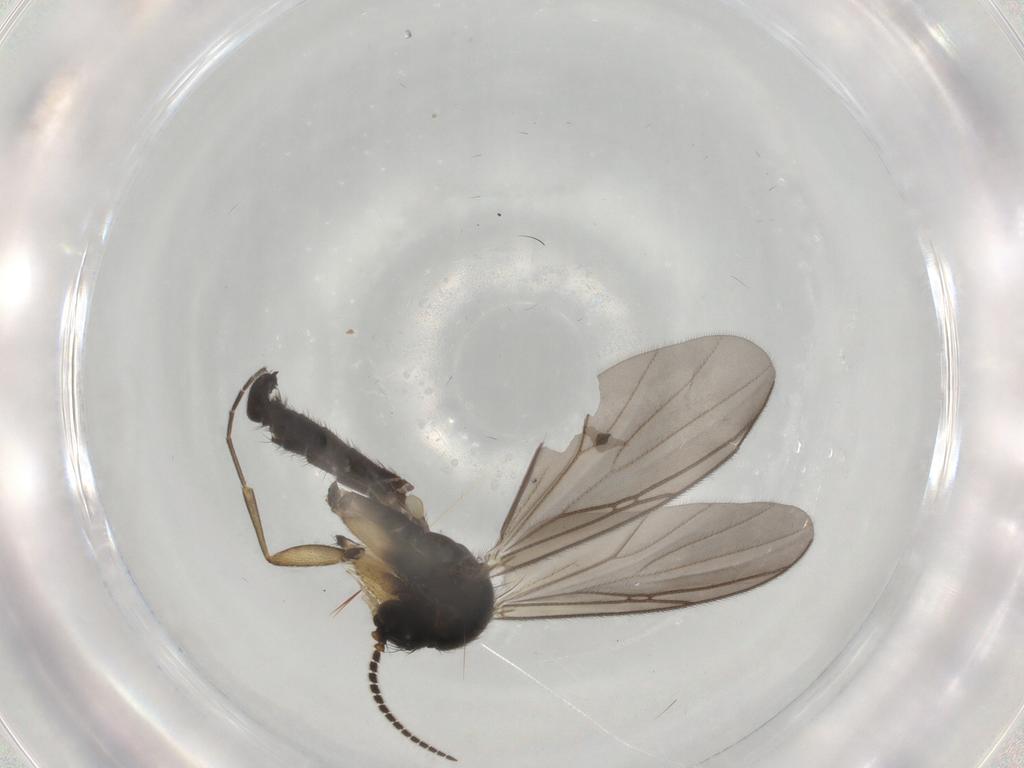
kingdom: Animalia
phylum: Arthropoda
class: Insecta
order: Diptera
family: Mycetophilidae
